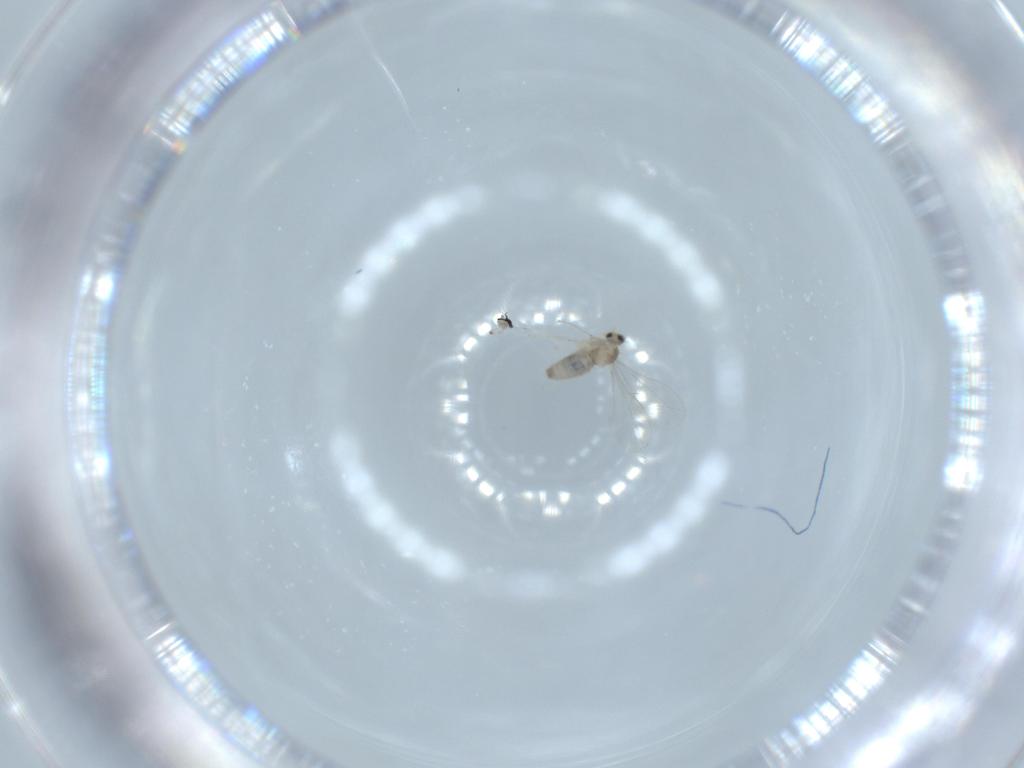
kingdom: Animalia
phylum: Arthropoda
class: Insecta
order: Diptera
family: Cecidomyiidae
